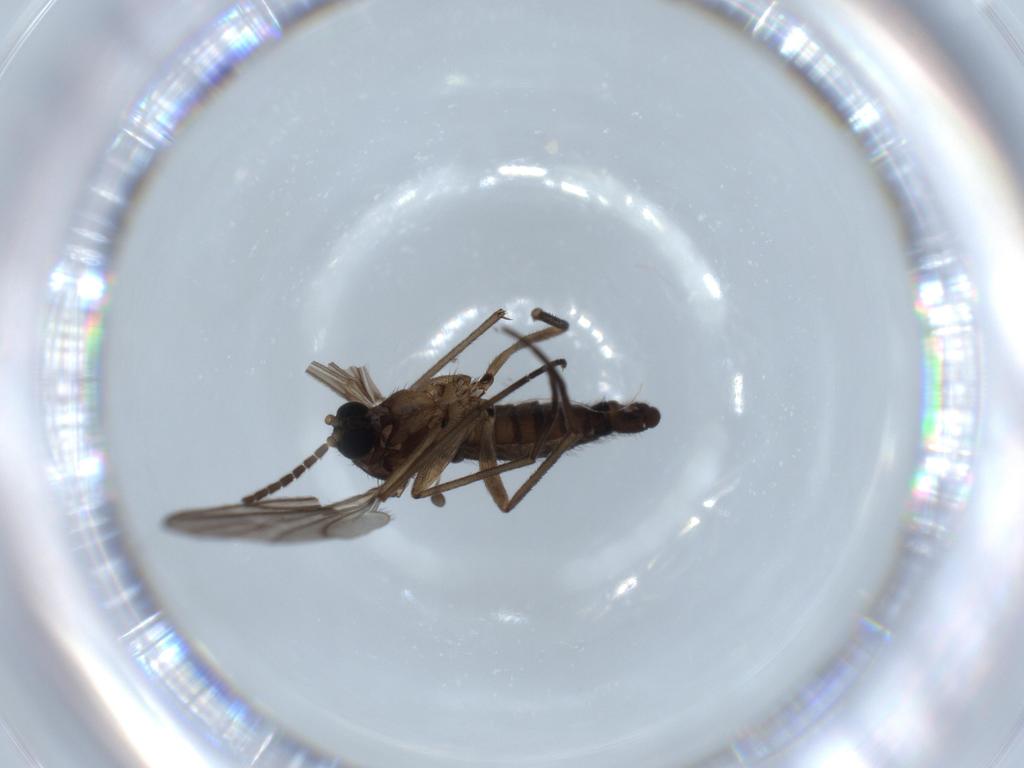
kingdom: Animalia
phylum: Arthropoda
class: Insecta
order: Diptera
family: Sciaridae
